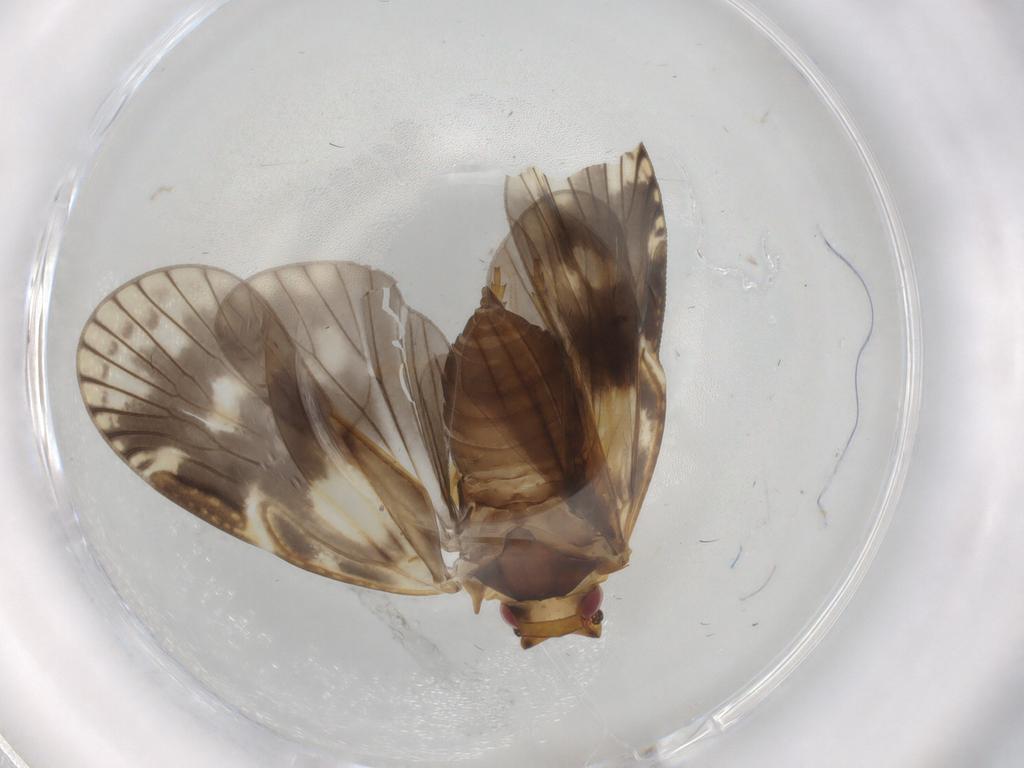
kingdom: Animalia
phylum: Arthropoda
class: Insecta
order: Hemiptera
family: Cixiidae
